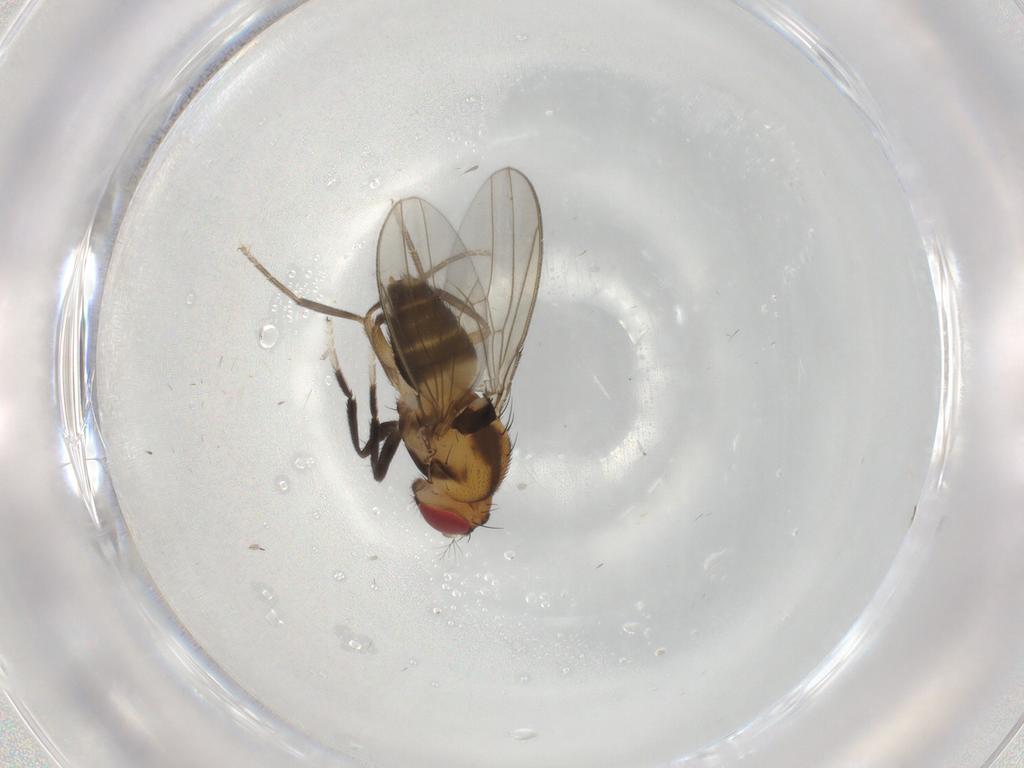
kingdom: Animalia
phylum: Arthropoda
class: Insecta
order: Diptera
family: Drosophilidae
